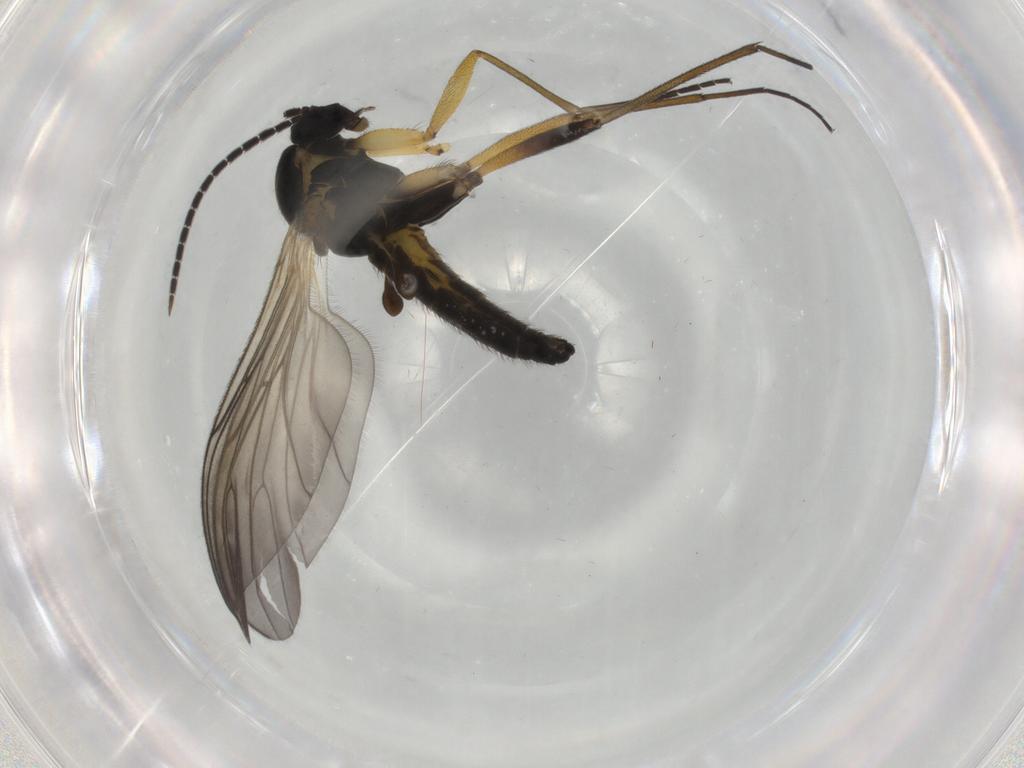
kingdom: Animalia
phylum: Arthropoda
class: Insecta
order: Diptera
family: Sciaridae
